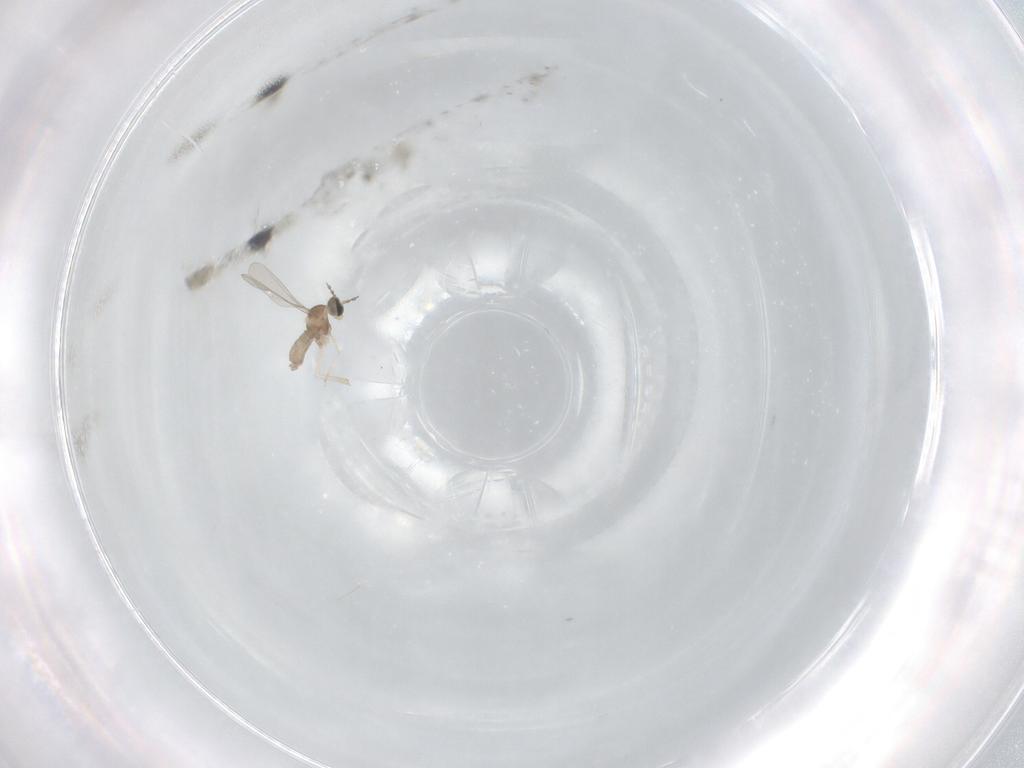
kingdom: Animalia
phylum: Arthropoda
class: Insecta
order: Diptera
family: Cecidomyiidae
